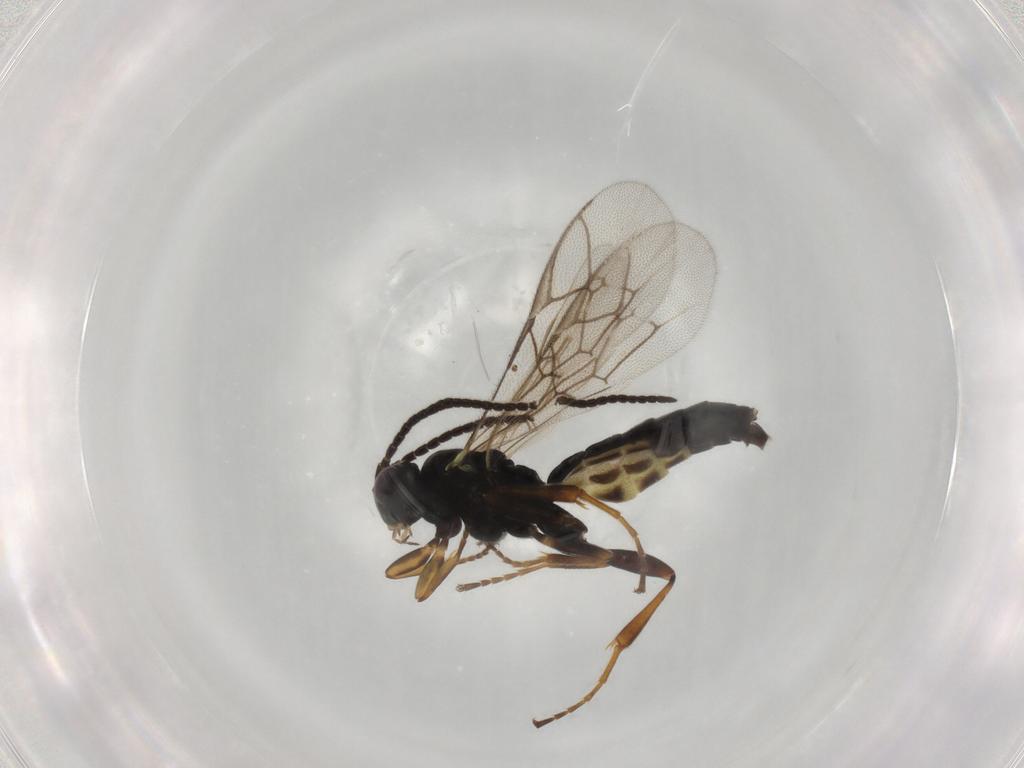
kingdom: Animalia
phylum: Arthropoda
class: Insecta
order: Hymenoptera
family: Ichneumonidae
